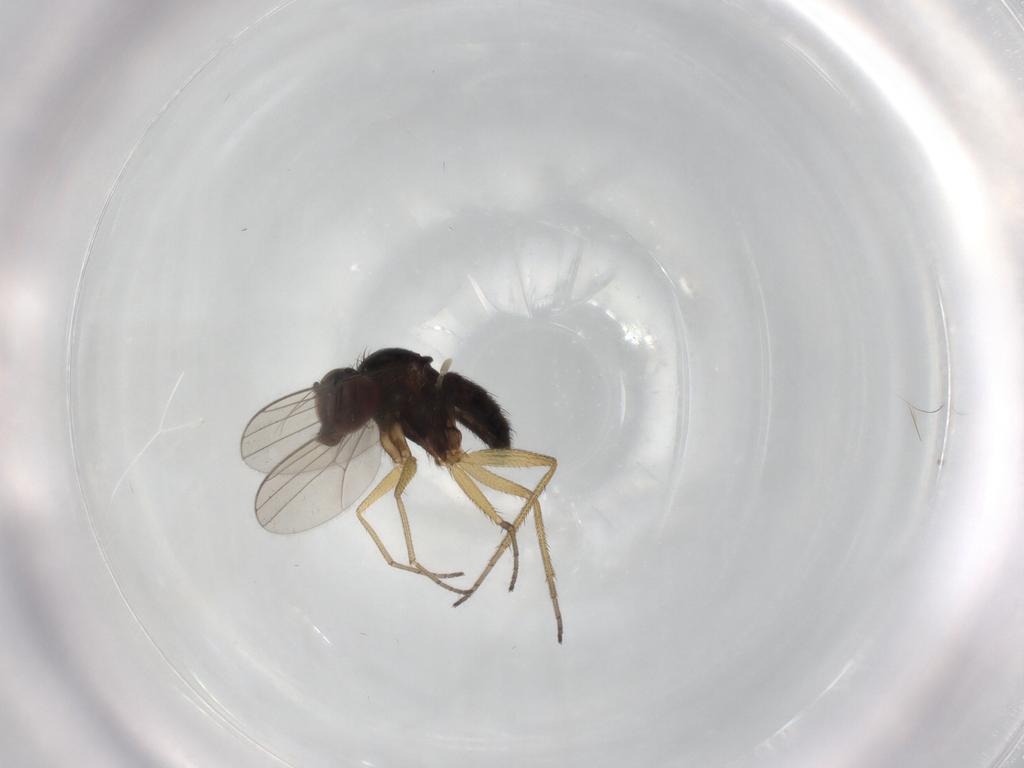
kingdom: Animalia
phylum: Arthropoda
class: Insecta
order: Diptera
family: Dolichopodidae
